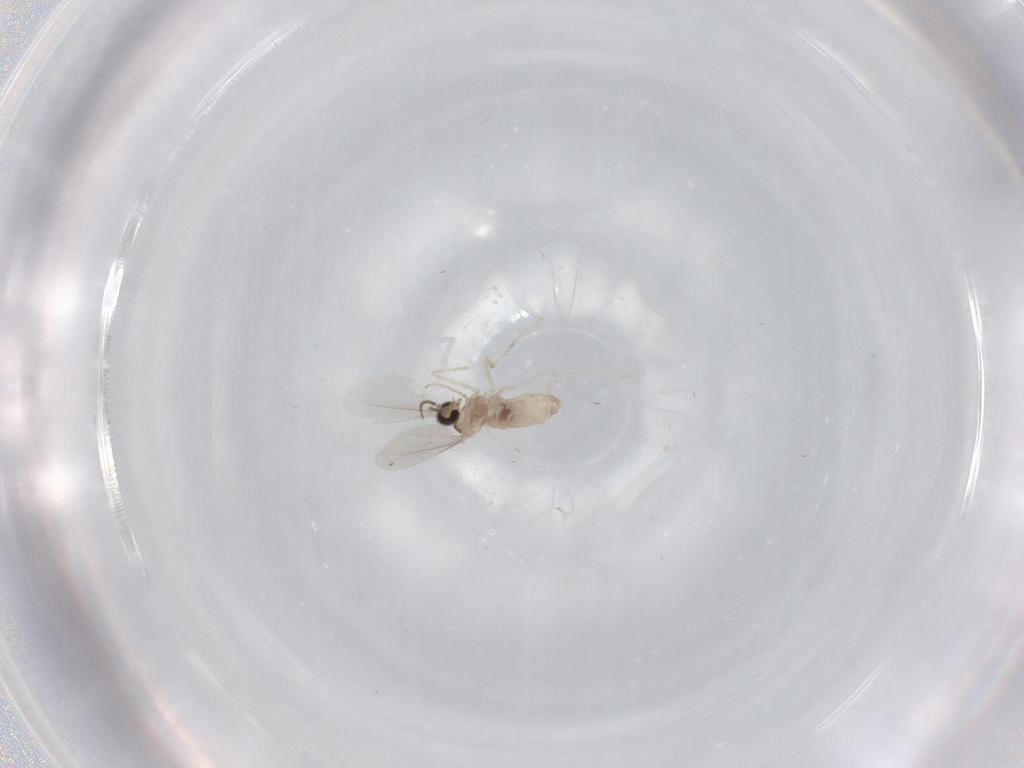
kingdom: Animalia
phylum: Arthropoda
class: Insecta
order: Diptera
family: Cecidomyiidae
